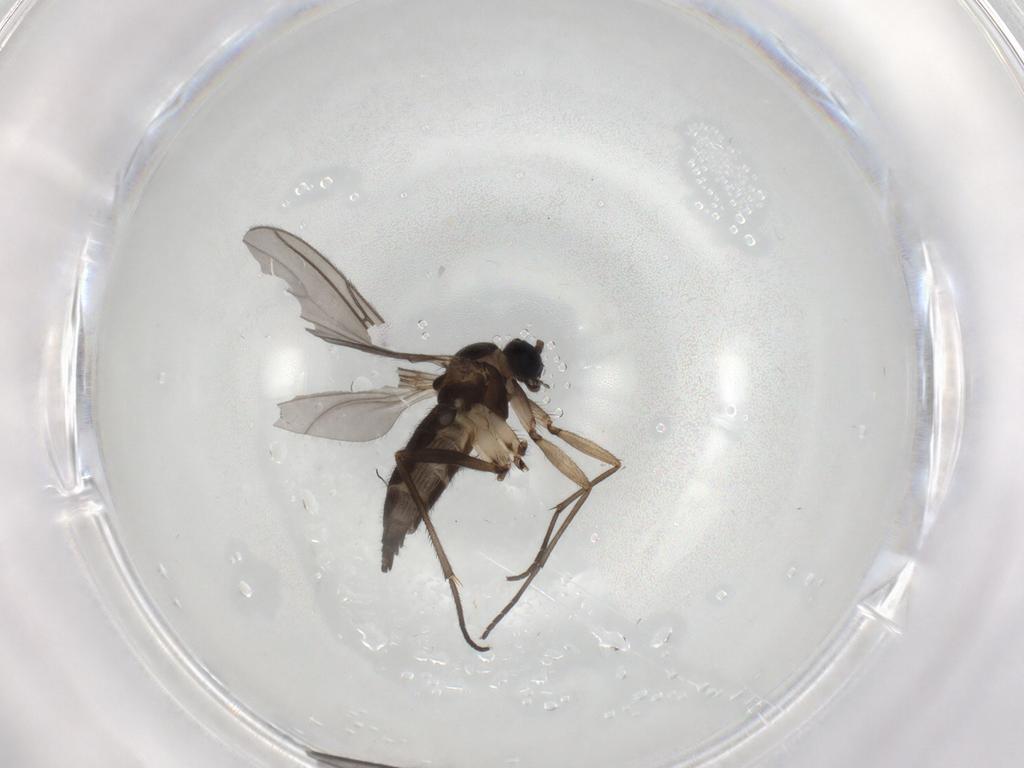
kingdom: Animalia
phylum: Arthropoda
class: Insecta
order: Diptera
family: Sciaridae
